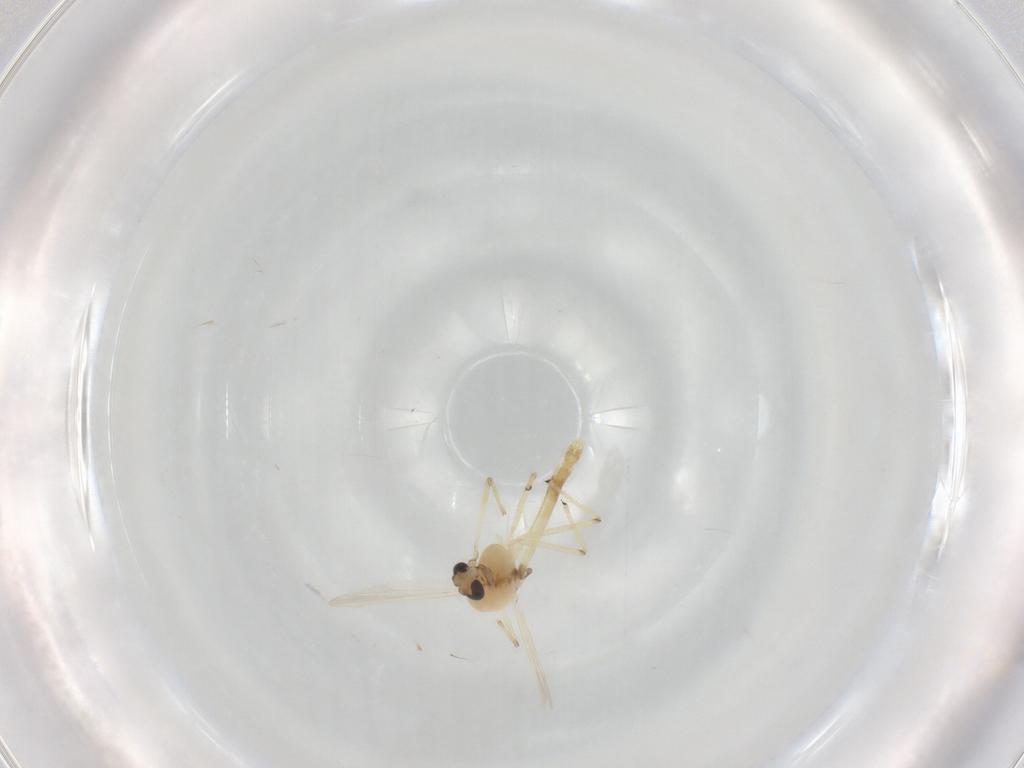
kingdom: Animalia
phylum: Arthropoda
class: Insecta
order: Diptera
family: Chironomidae
